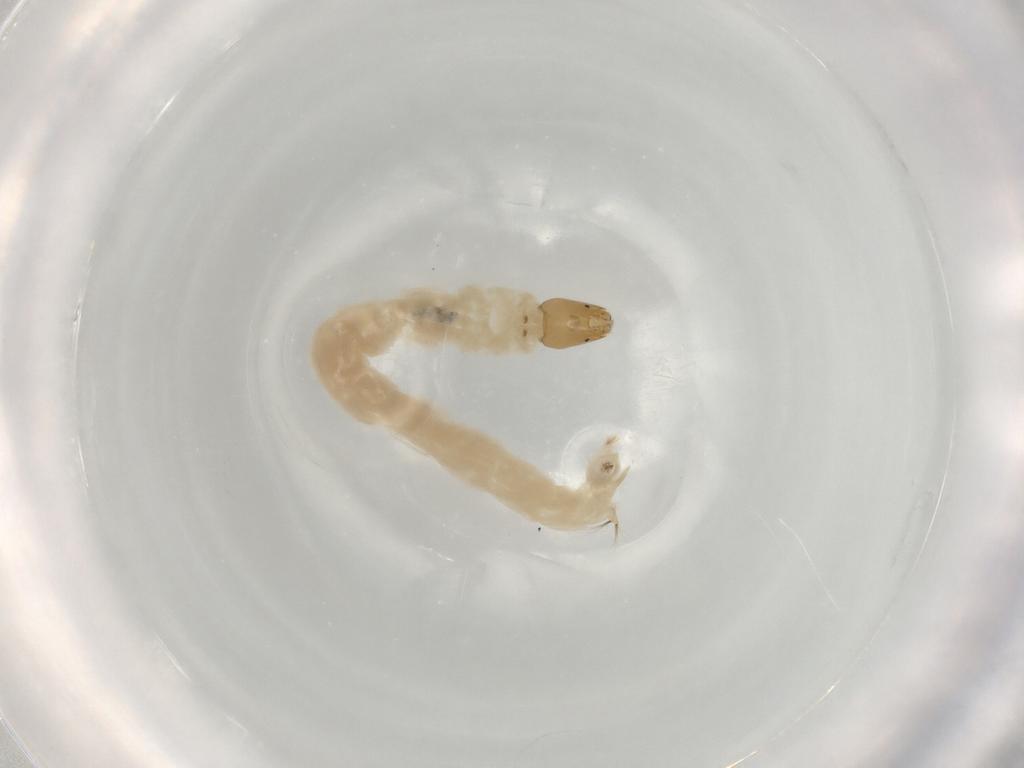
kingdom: Animalia
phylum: Arthropoda
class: Insecta
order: Diptera
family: Chironomidae
